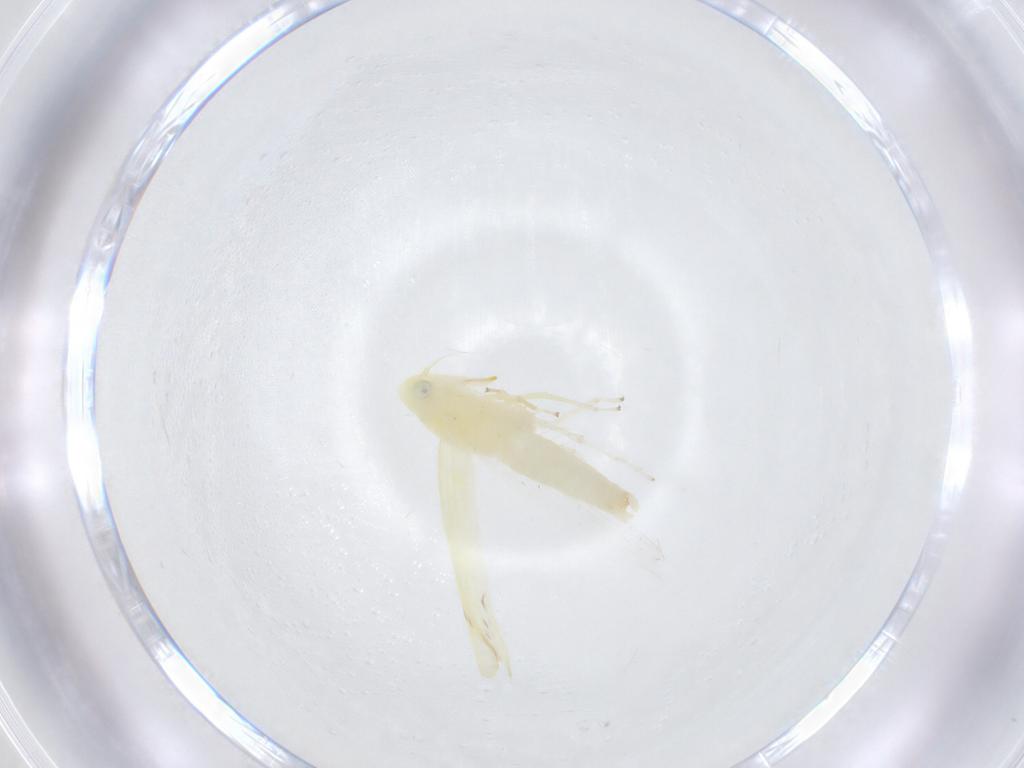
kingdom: Animalia
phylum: Arthropoda
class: Insecta
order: Hemiptera
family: Cicadellidae
